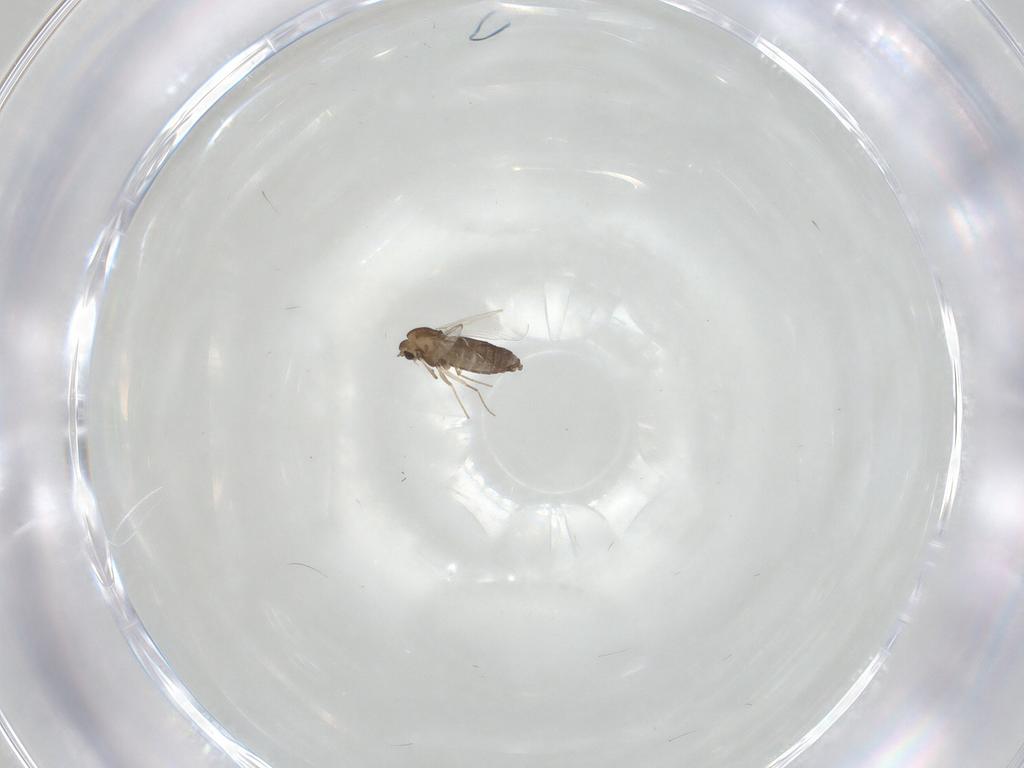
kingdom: Animalia
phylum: Arthropoda
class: Insecta
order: Diptera
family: Chironomidae
